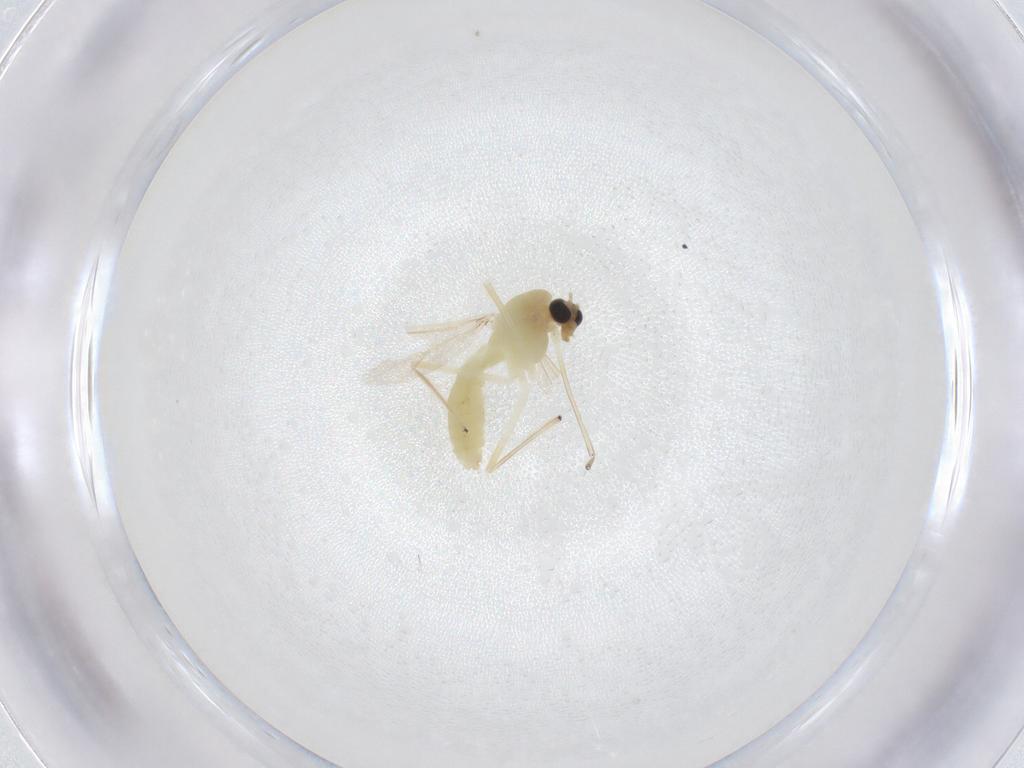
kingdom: Animalia
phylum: Arthropoda
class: Insecta
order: Diptera
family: Chironomidae
